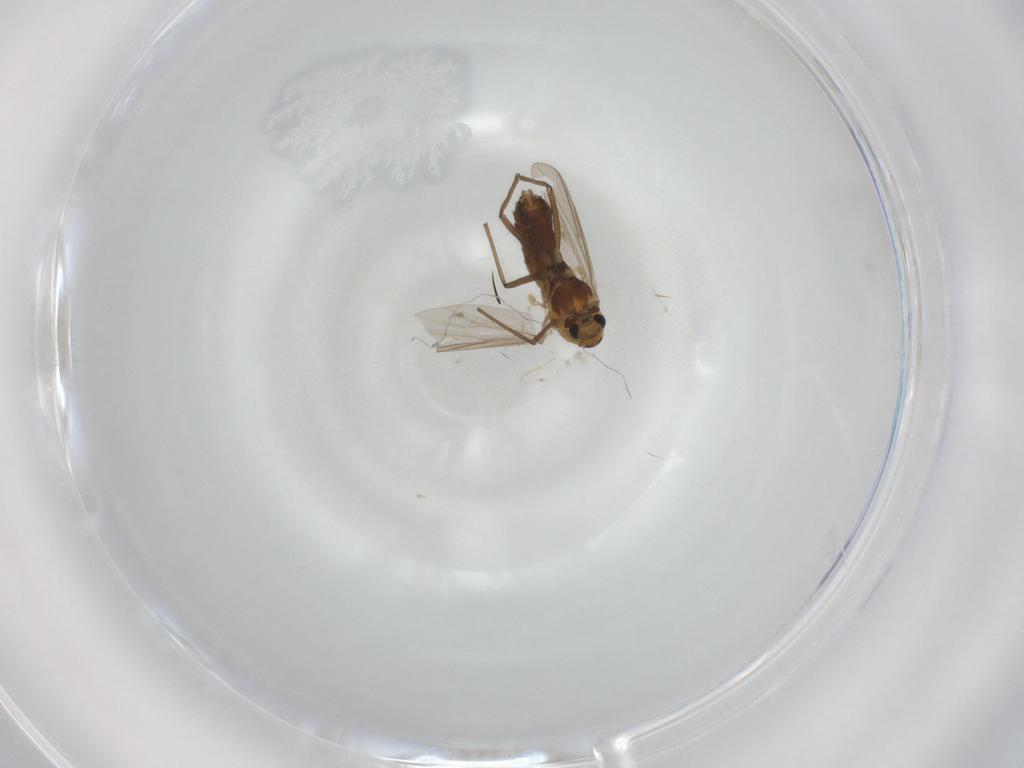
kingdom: Animalia
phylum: Arthropoda
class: Insecta
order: Diptera
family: Chironomidae
